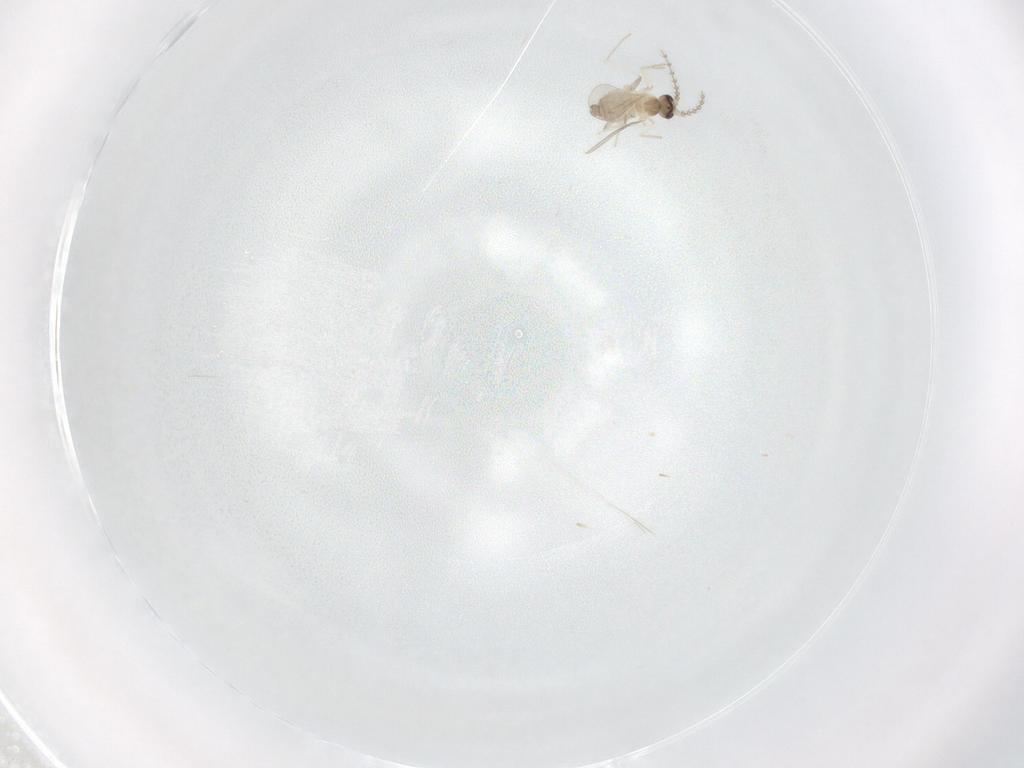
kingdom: Animalia
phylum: Arthropoda
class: Insecta
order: Diptera
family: Cecidomyiidae
